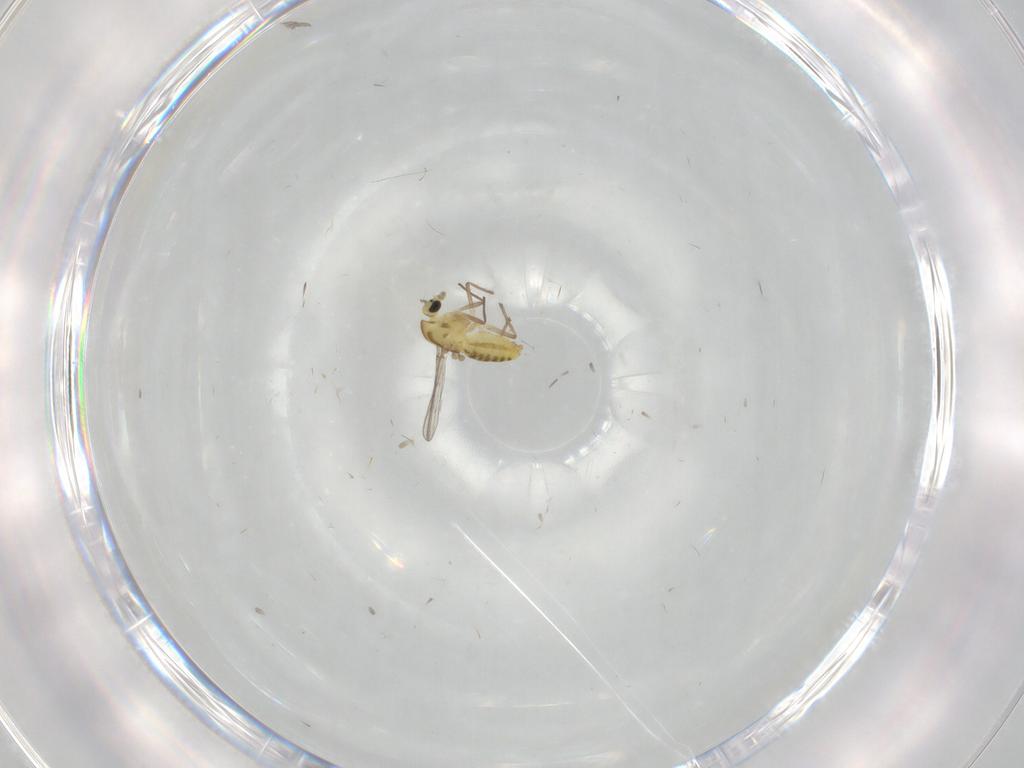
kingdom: Animalia
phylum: Arthropoda
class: Insecta
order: Diptera
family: Chironomidae
